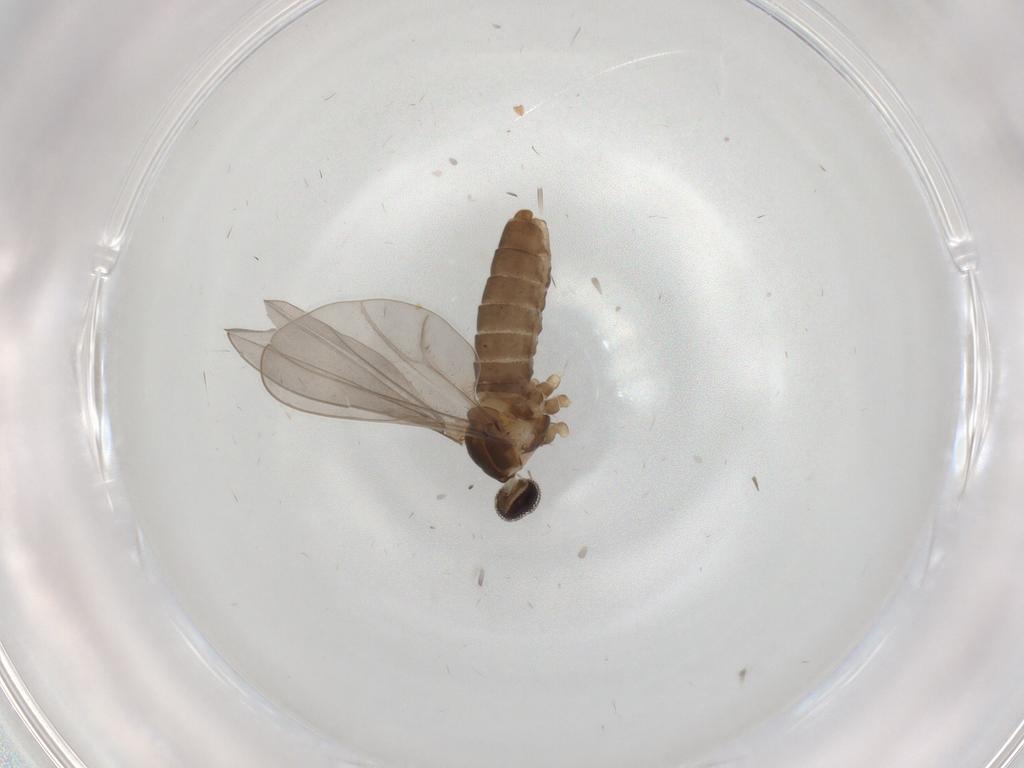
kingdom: Animalia
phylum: Arthropoda
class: Insecta
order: Diptera
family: Cecidomyiidae
